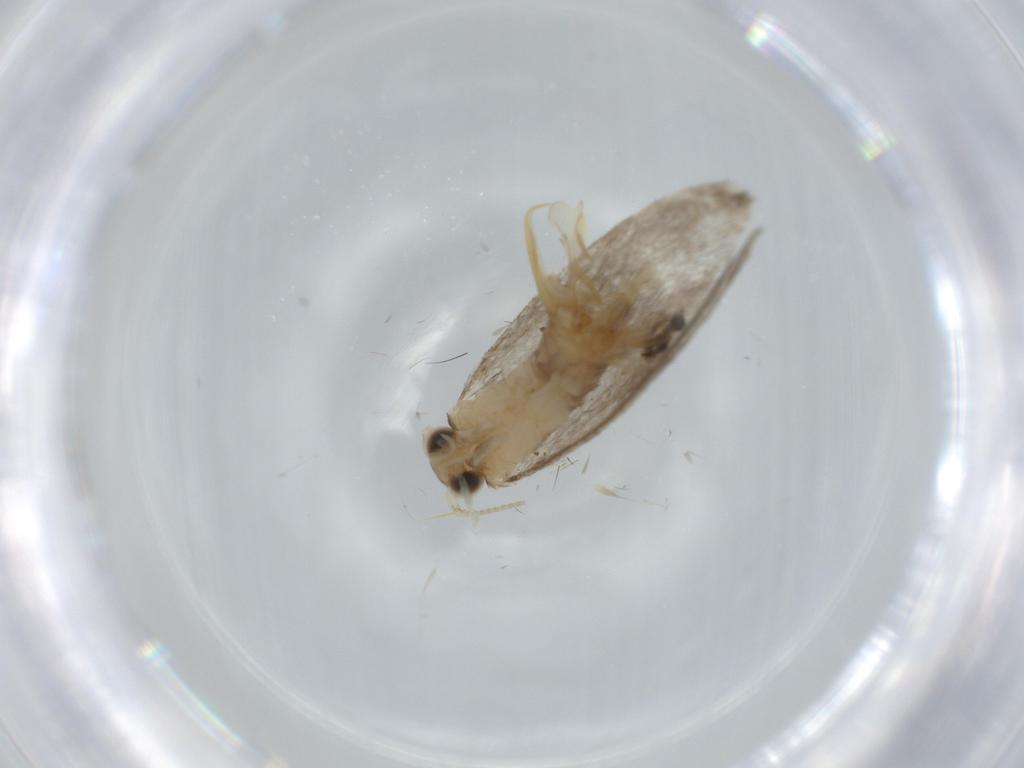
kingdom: Animalia
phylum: Arthropoda
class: Insecta
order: Lepidoptera
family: Tineidae
